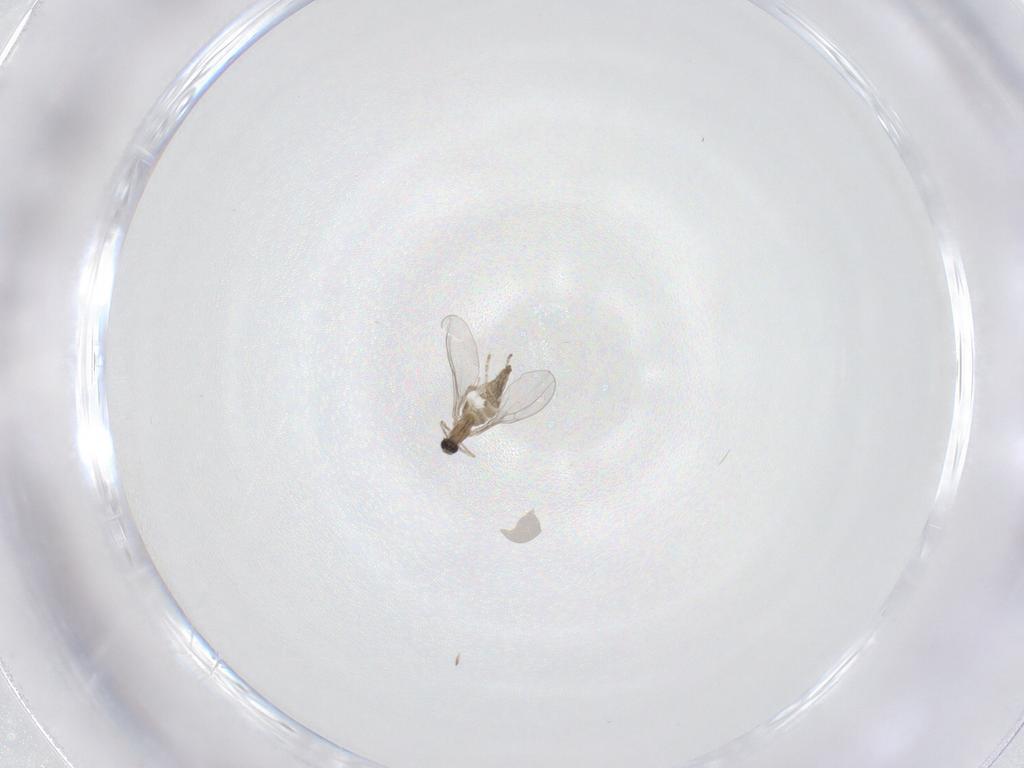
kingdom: Animalia
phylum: Arthropoda
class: Insecta
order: Diptera
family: Cecidomyiidae
